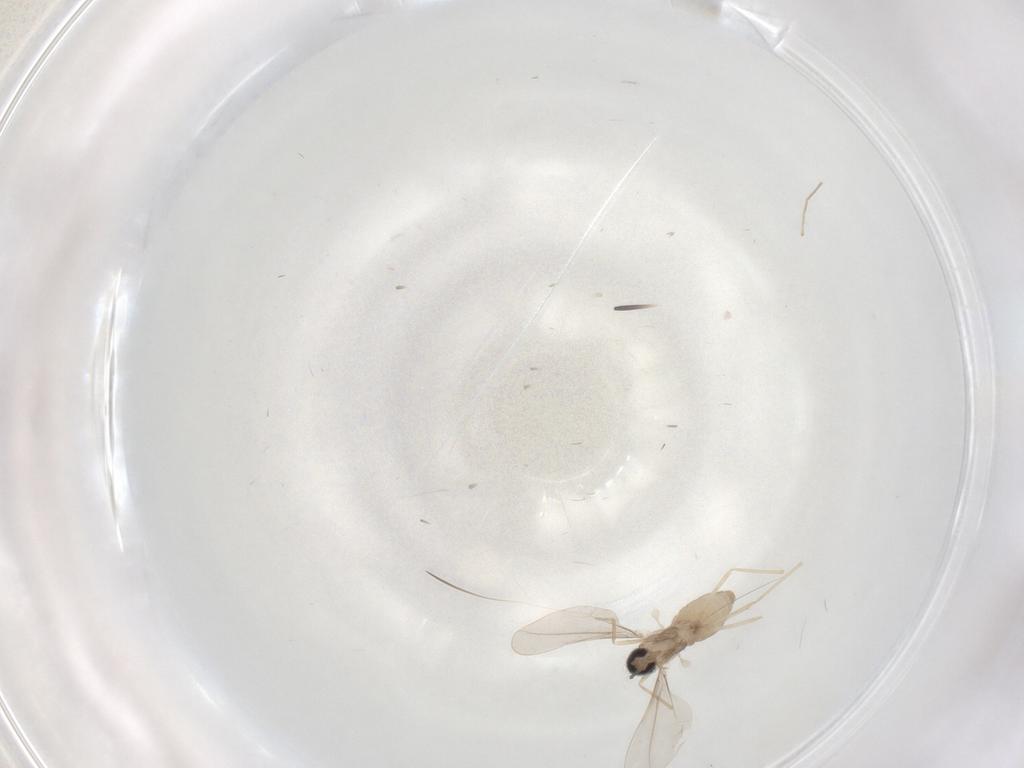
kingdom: Animalia
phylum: Arthropoda
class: Insecta
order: Diptera
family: Cecidomyiidae
